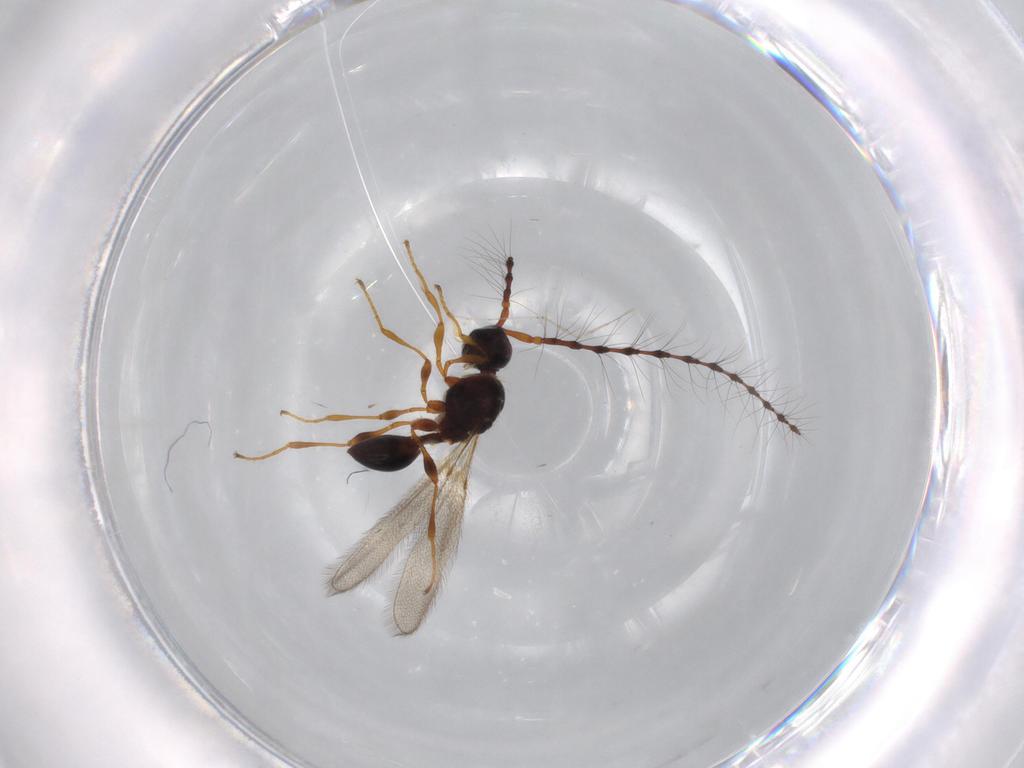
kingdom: Animalia
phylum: Arthropoda
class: Insecta
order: Hymenoptera
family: Diapriidae
